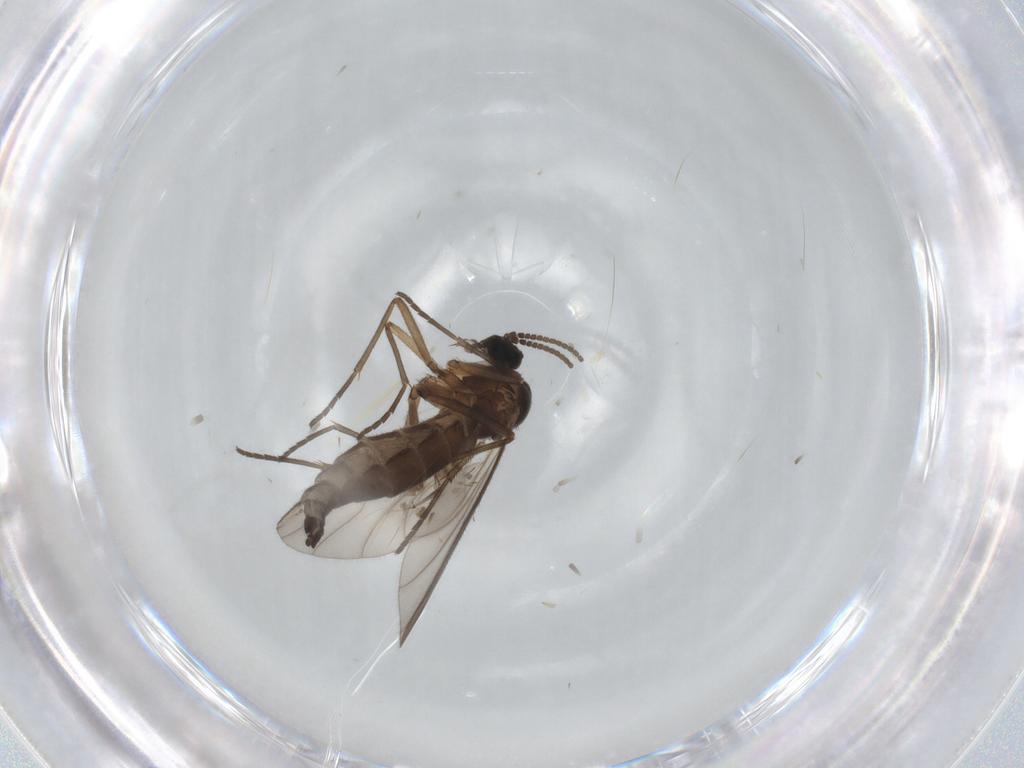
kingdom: Animalia
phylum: Arthropoda
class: Insecta
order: Diptera
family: Sciaridae
